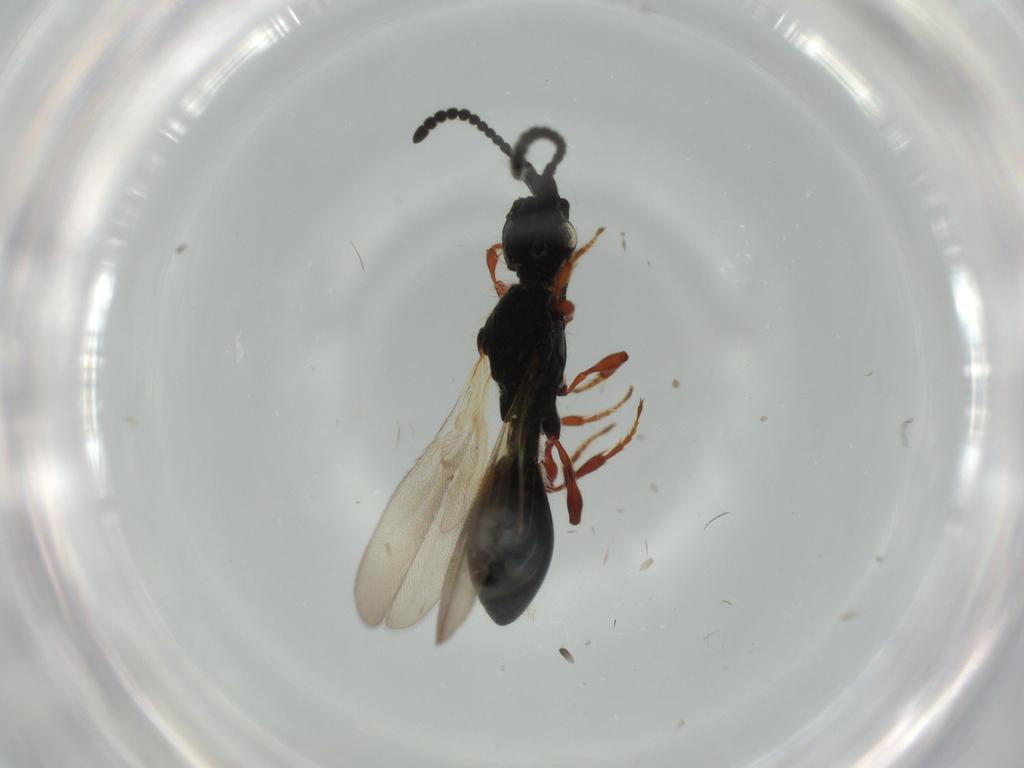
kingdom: Animalia
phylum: Arthropoda
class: Insecta
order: Hymenoptera
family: Diapriidae
